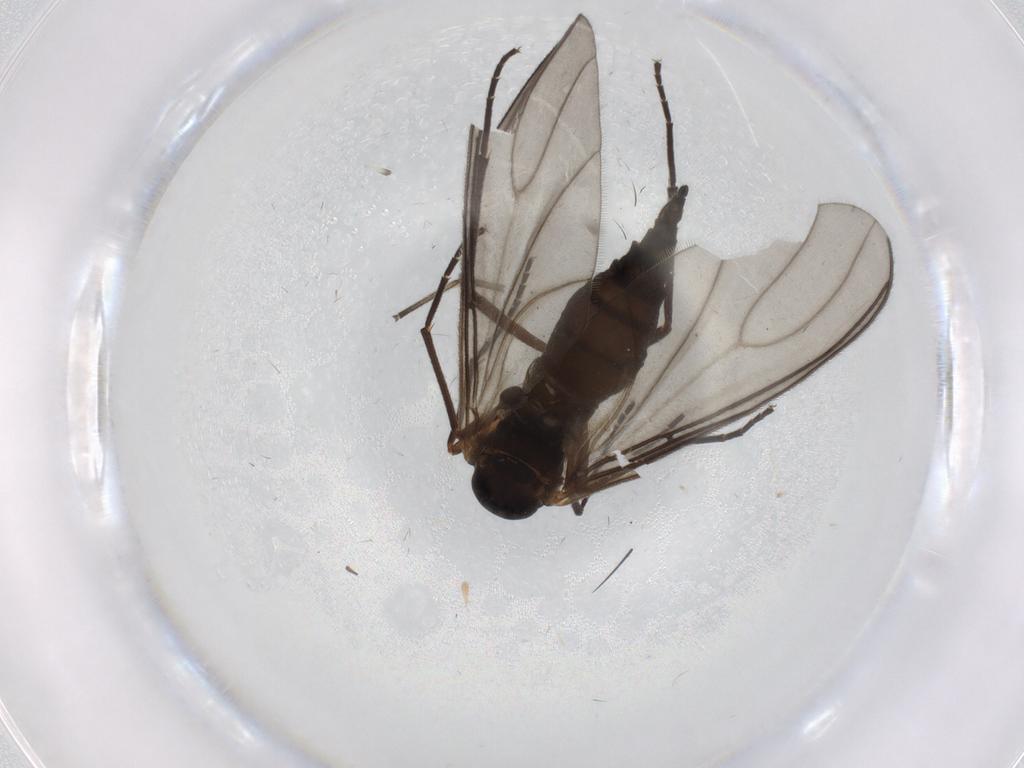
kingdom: Animalia
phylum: Arthropoda
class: Insecta
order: Diptera
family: Sciaridae
